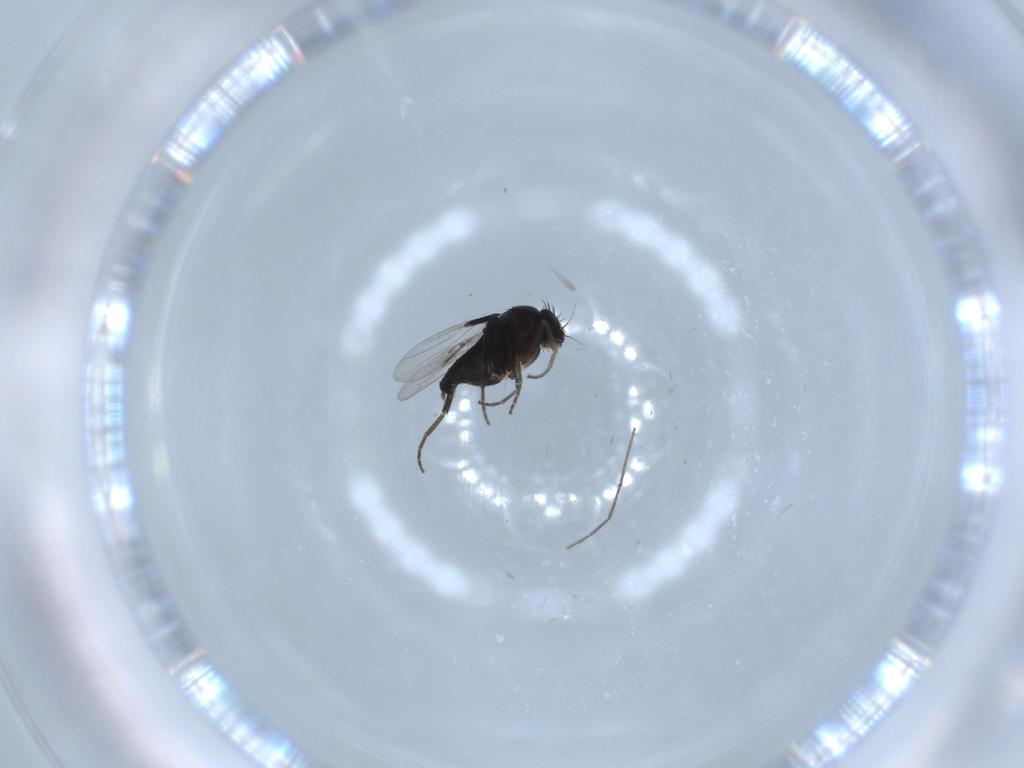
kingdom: Animalia
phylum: Arthropoda
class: Insecta
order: Diptera
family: Phoridae
